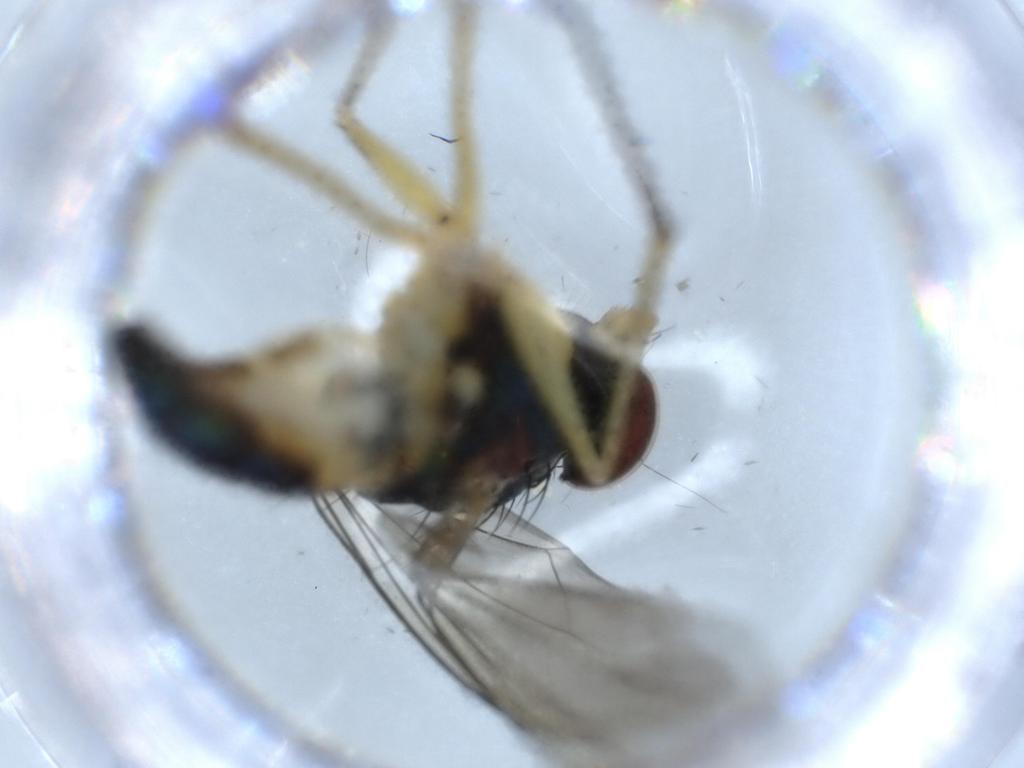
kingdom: Animalia
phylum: Arthropoda
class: Insecta
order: Diptera
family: Dolichopodidae
